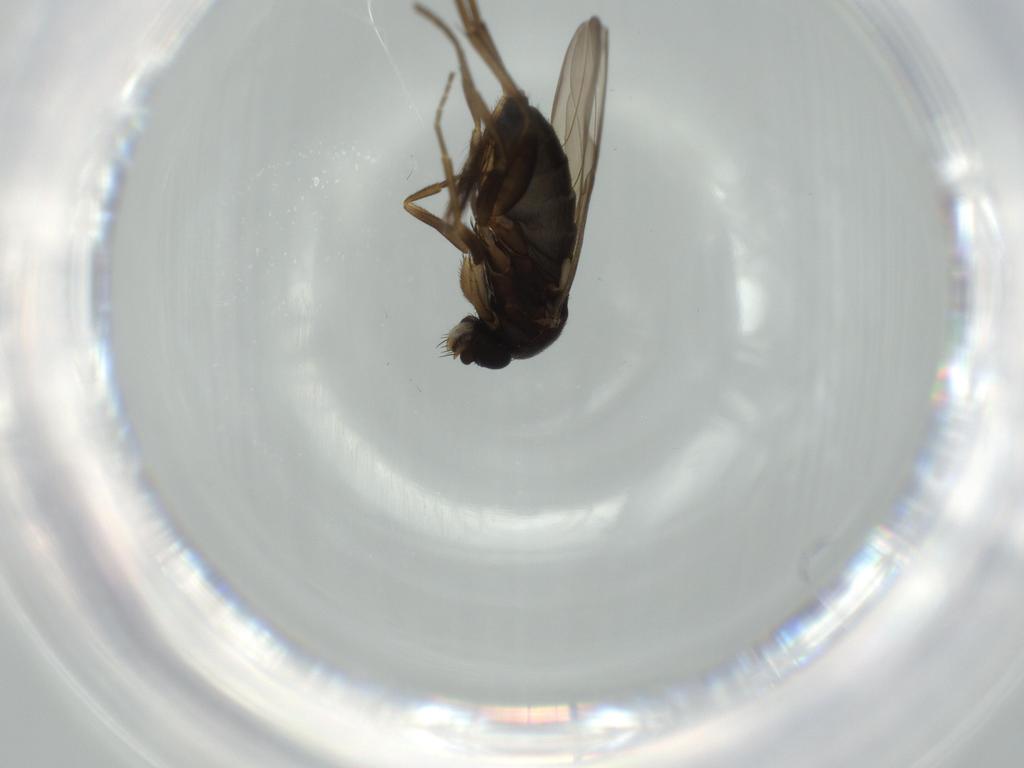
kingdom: Animalia
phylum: Arthropoda
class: Insecta
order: Diptera
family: Phoridae
